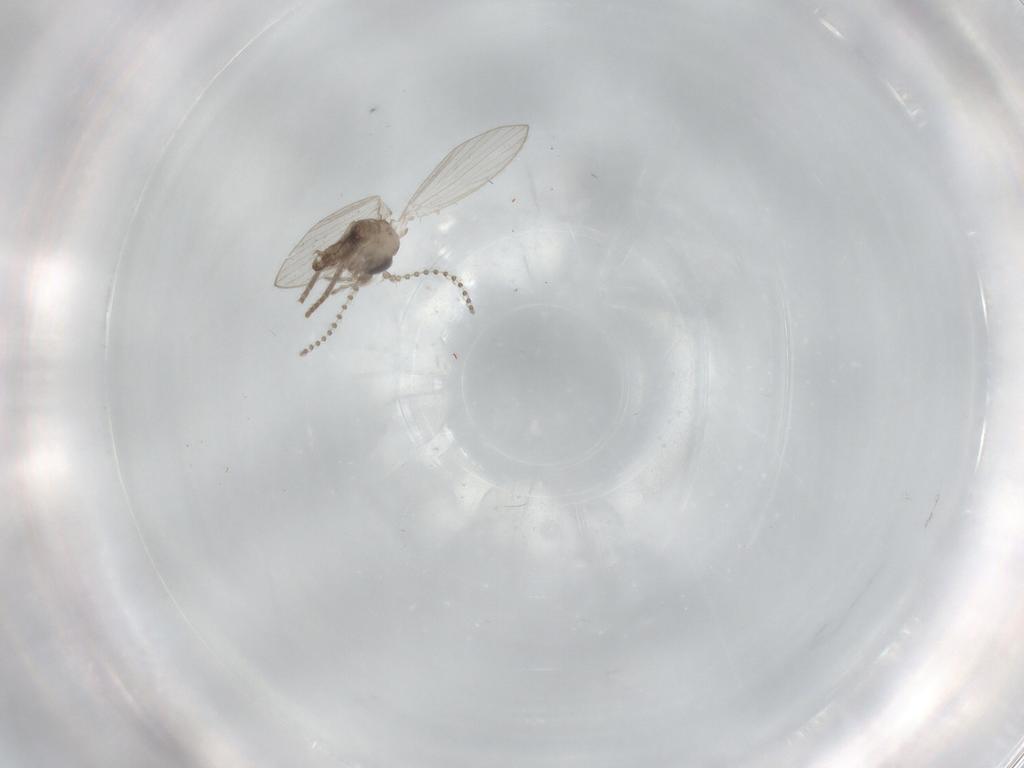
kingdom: Animalia
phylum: Arthropoda
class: Insecta
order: Diptera
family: Psychodidae
